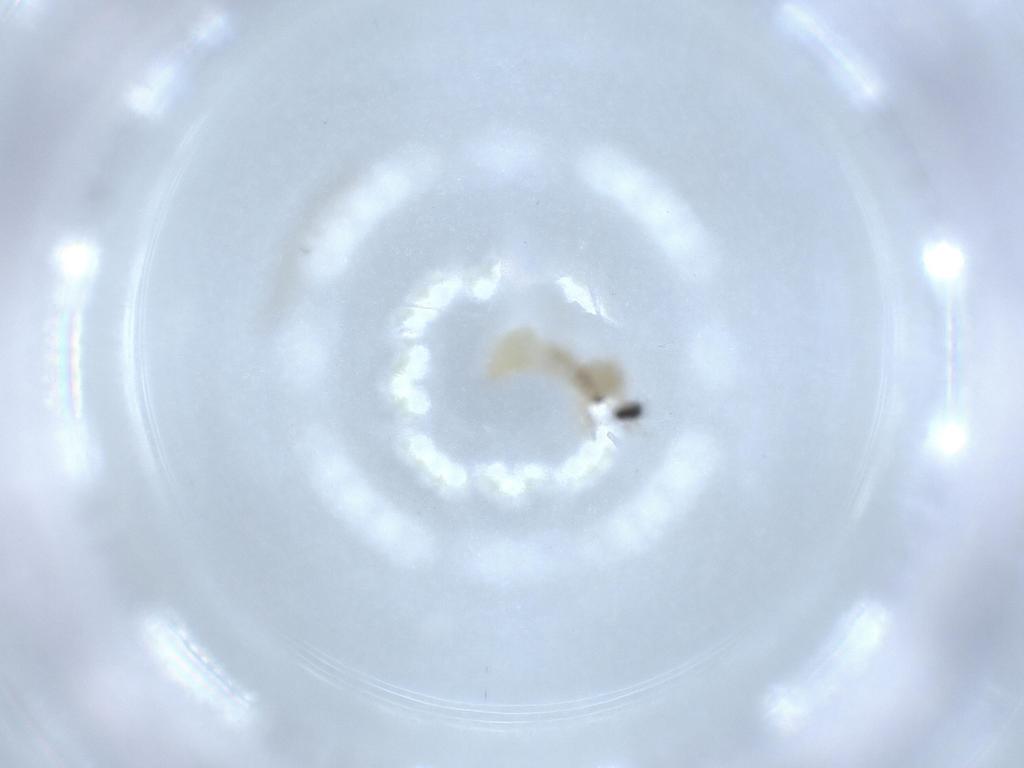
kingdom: Animalia
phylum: Arthropoda
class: Insecta
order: Diptera
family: Cecidomyiidae
